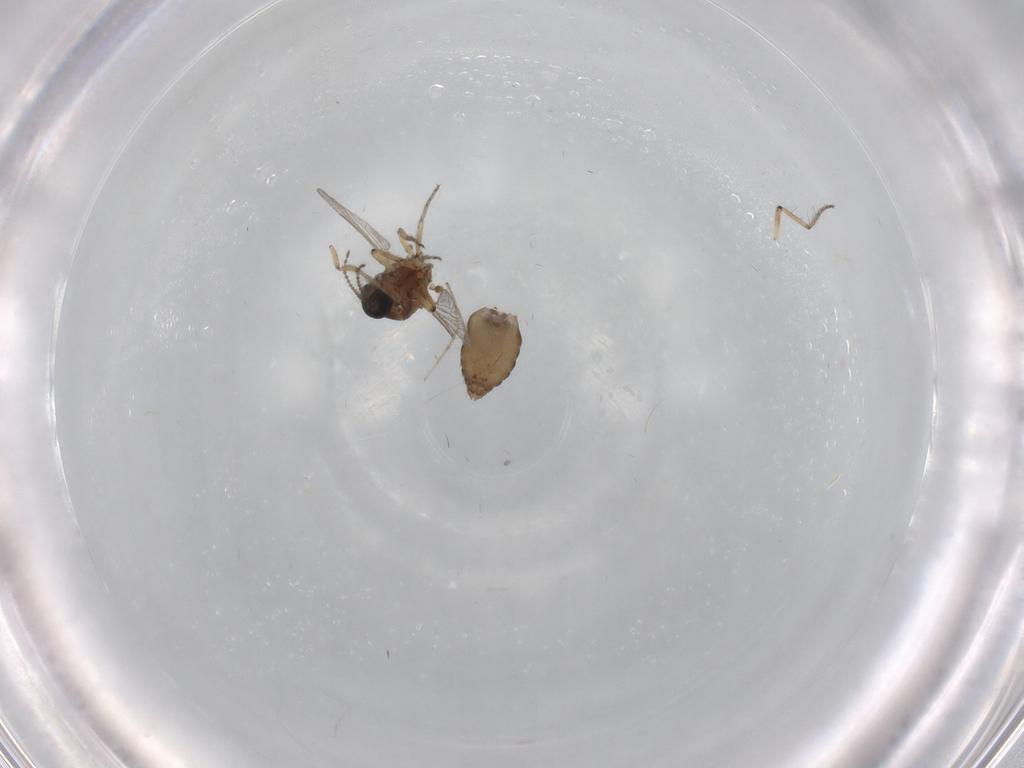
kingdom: Animalia
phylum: Arthropoda
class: Insecta
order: Diptera
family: Ceratopogonidae
